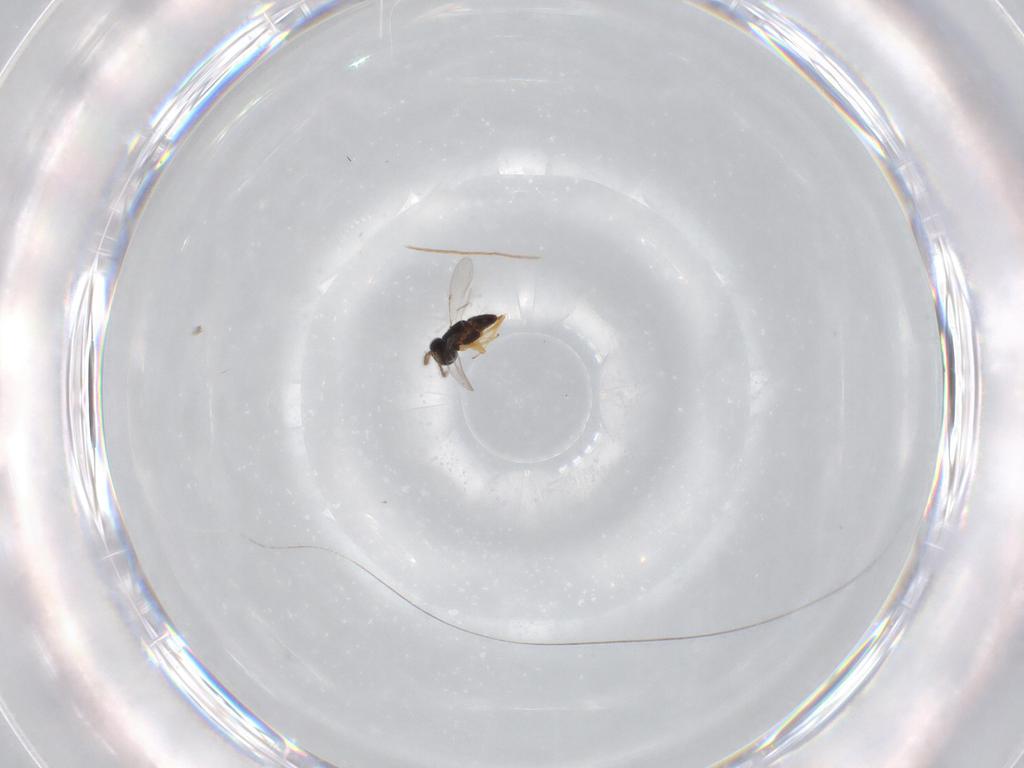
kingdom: Animalia
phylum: Arthropoda
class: Insecta
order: Hymenoptera
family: Encyrtidae
